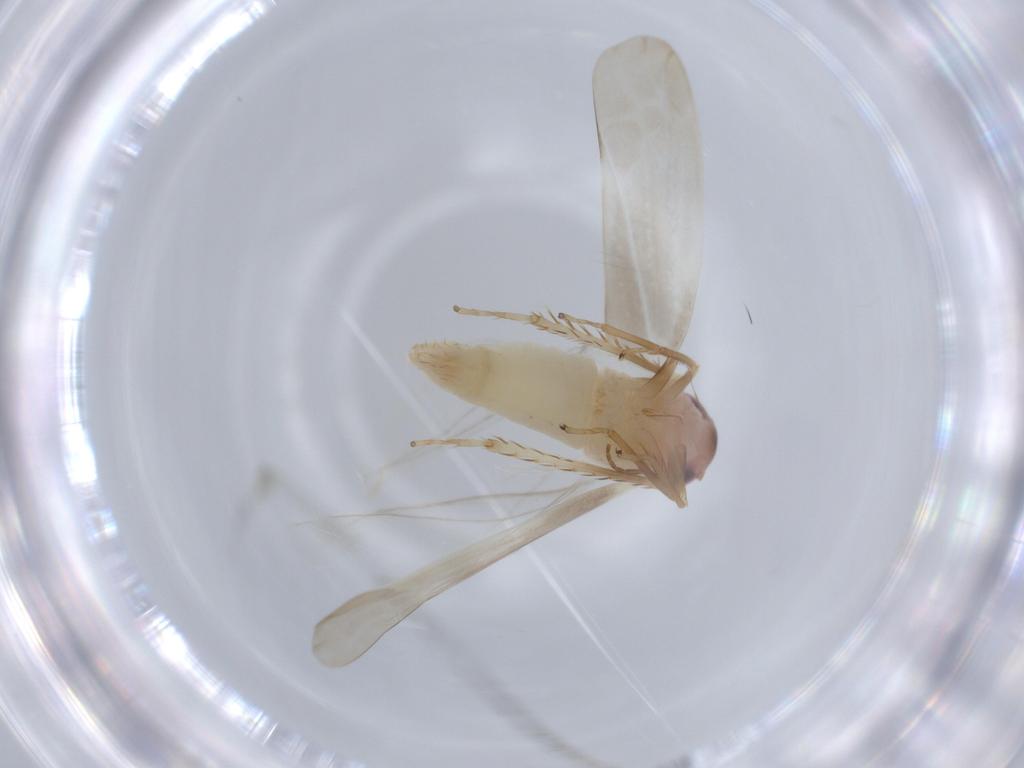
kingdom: Animalia
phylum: Arthropoda
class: Insecta
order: Hemiptera
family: Cicadellidae
